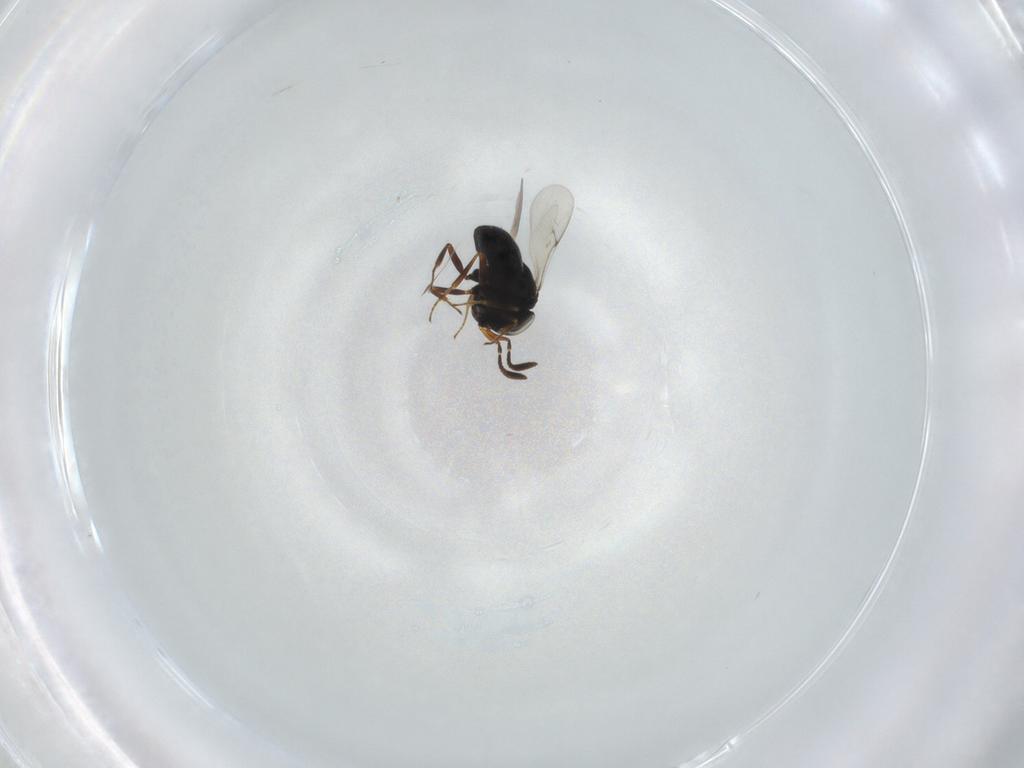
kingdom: Animalia
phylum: Arthropoda
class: Insecta
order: Hymenoptera
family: Scelionidae
